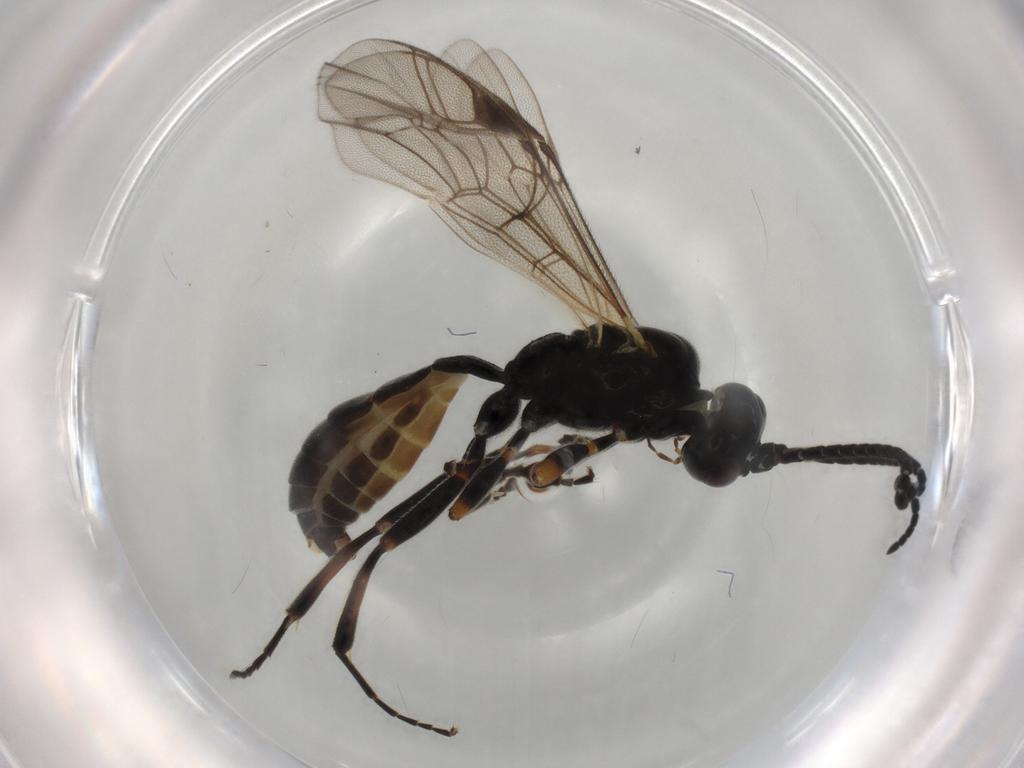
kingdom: Animalia
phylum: Arthropoda
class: Insecta
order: Hymenoptera
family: Ichneumonidae
